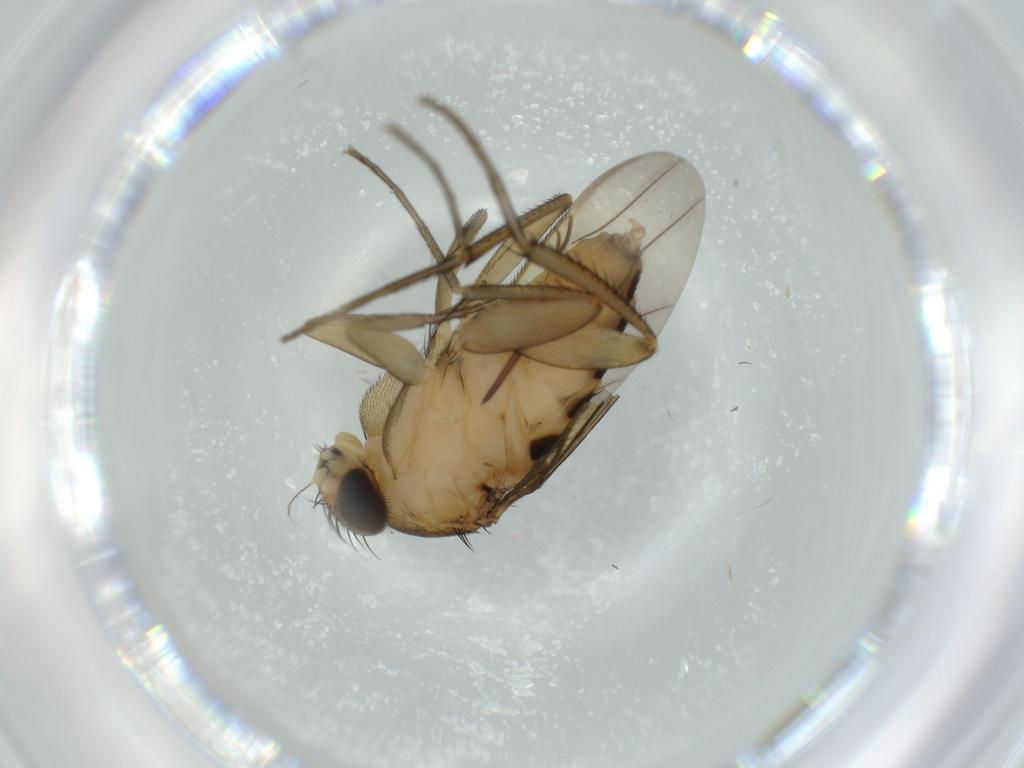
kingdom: Animalia
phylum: Arthropoda
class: Insecta
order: Diptera
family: Phoridae
